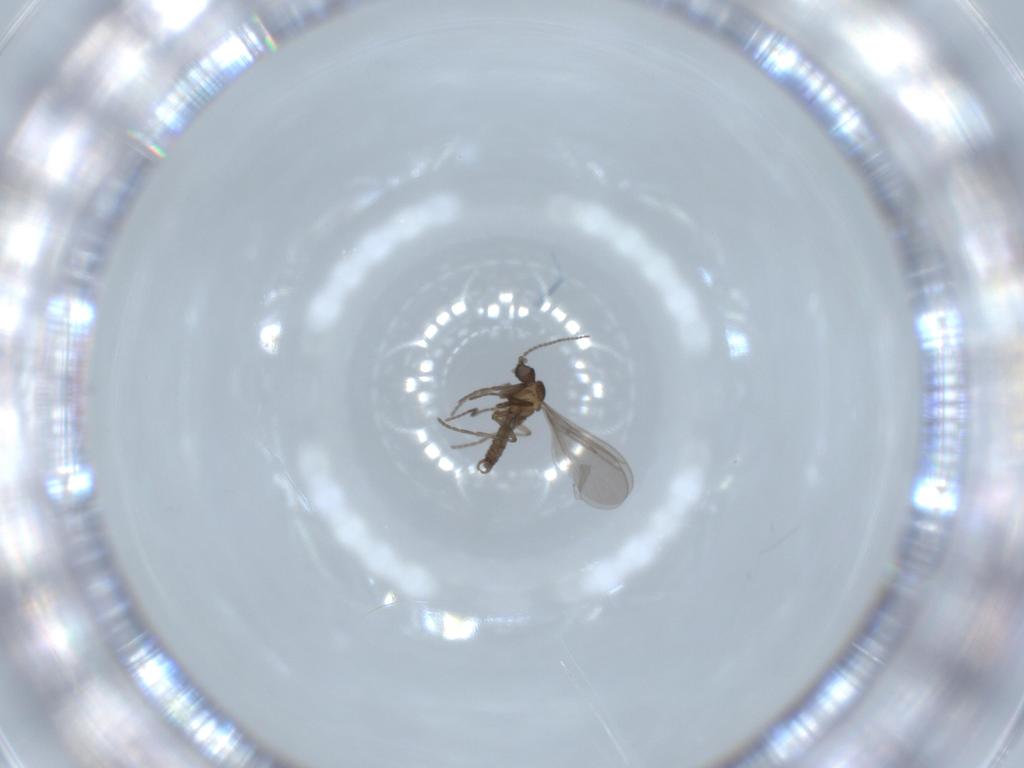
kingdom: Animalia
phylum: Arthropoda
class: Insecta
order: Diptera
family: Sciaridae
